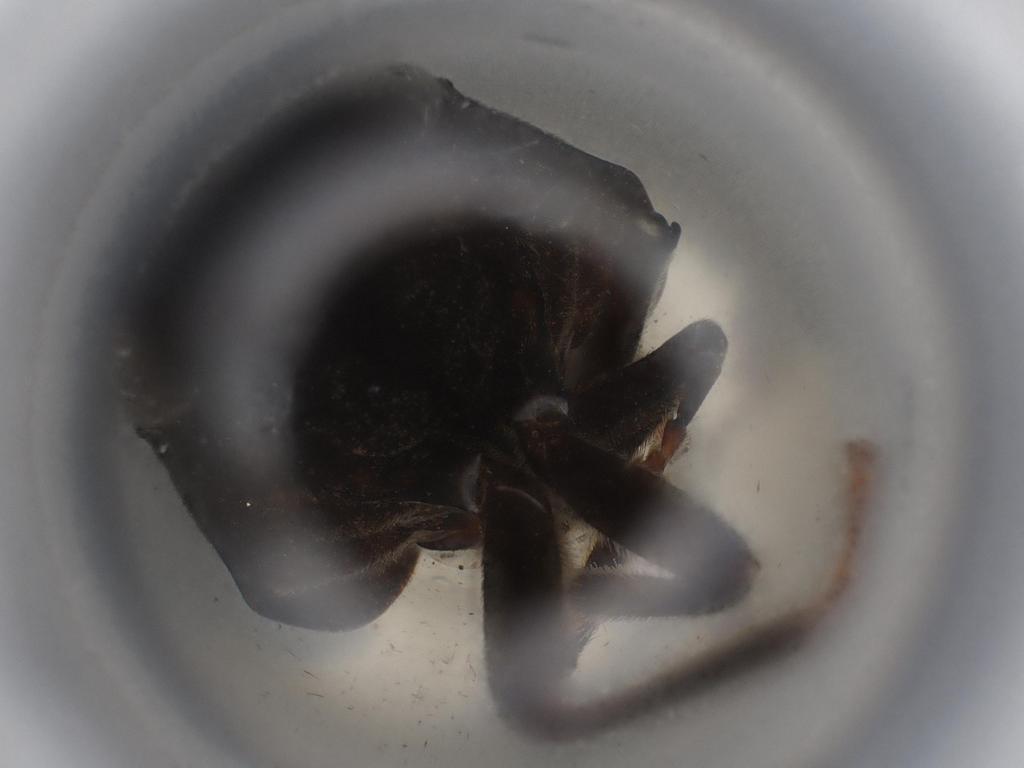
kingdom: Animalia
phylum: Arthropoda
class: Insecta
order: Hemiptera
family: Aphrophoridae
